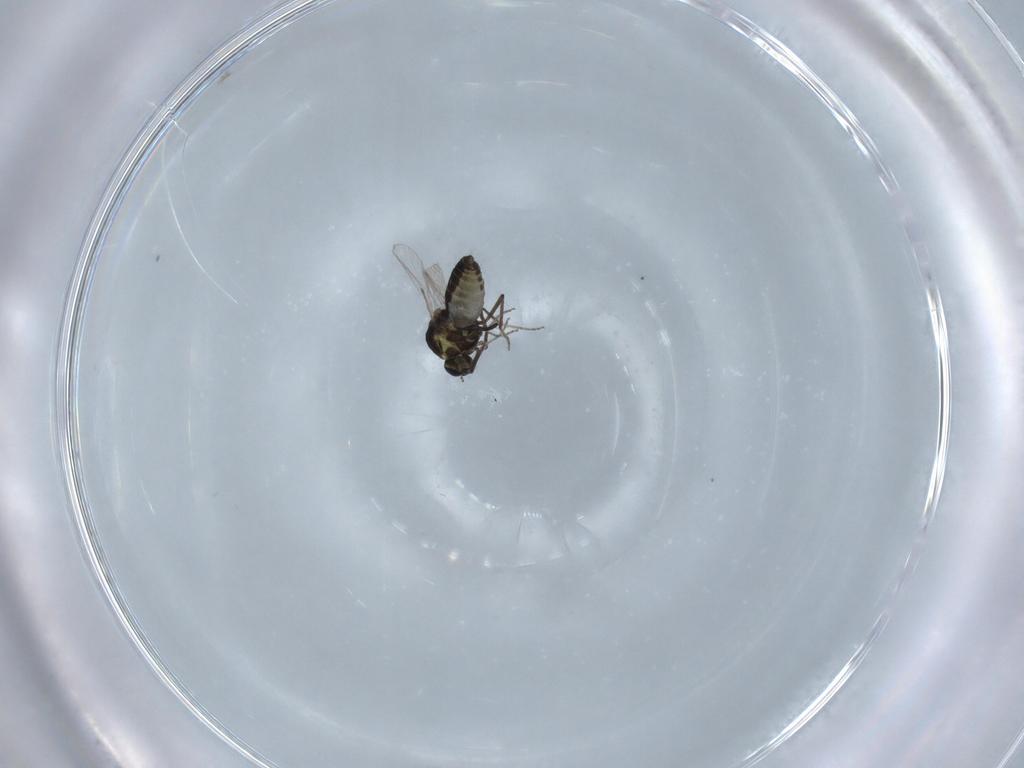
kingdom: Animalia
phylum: Arthropoda
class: Insecta
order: Diptera
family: Ceratopogonidae
